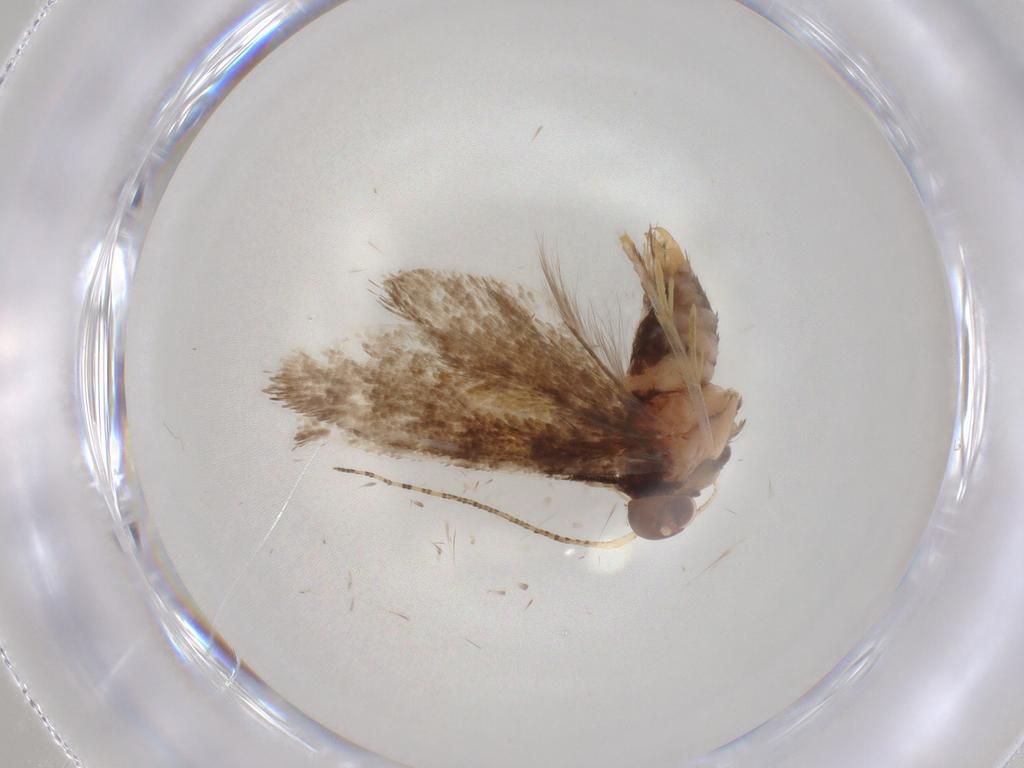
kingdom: Animalia
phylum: Arthropoda
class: Insecta
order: Lepidoptera
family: Oecophoridae
